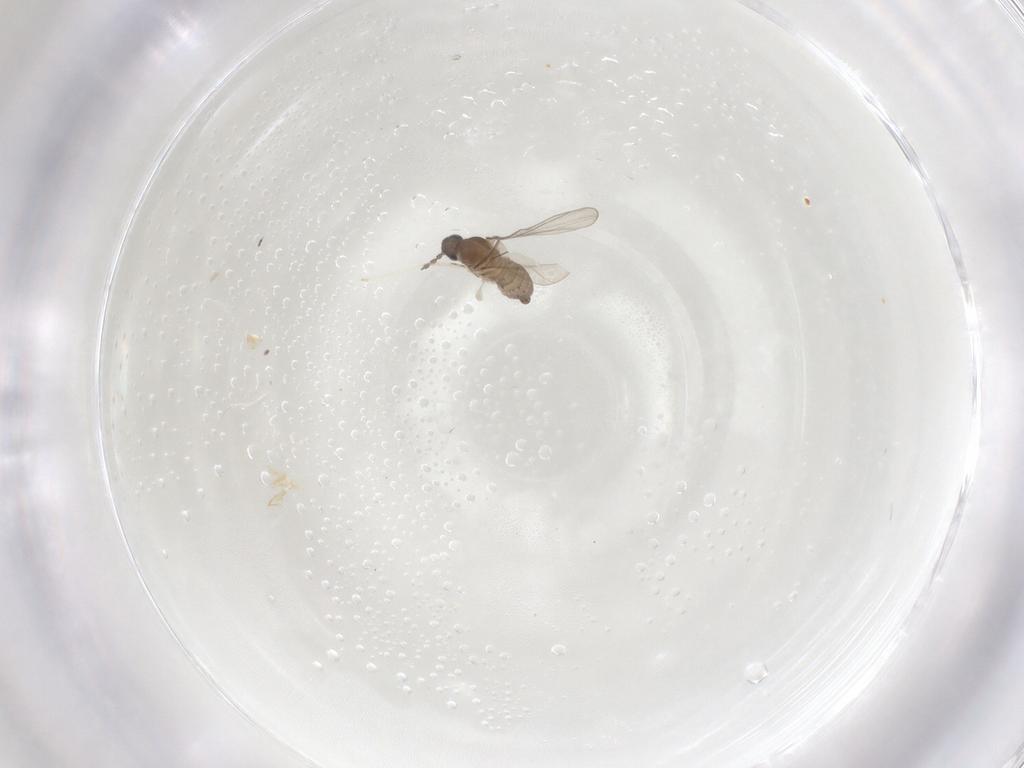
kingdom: Animalia
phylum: Arthropoda
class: Insecta
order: Diptera
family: Cecidomyiidae
